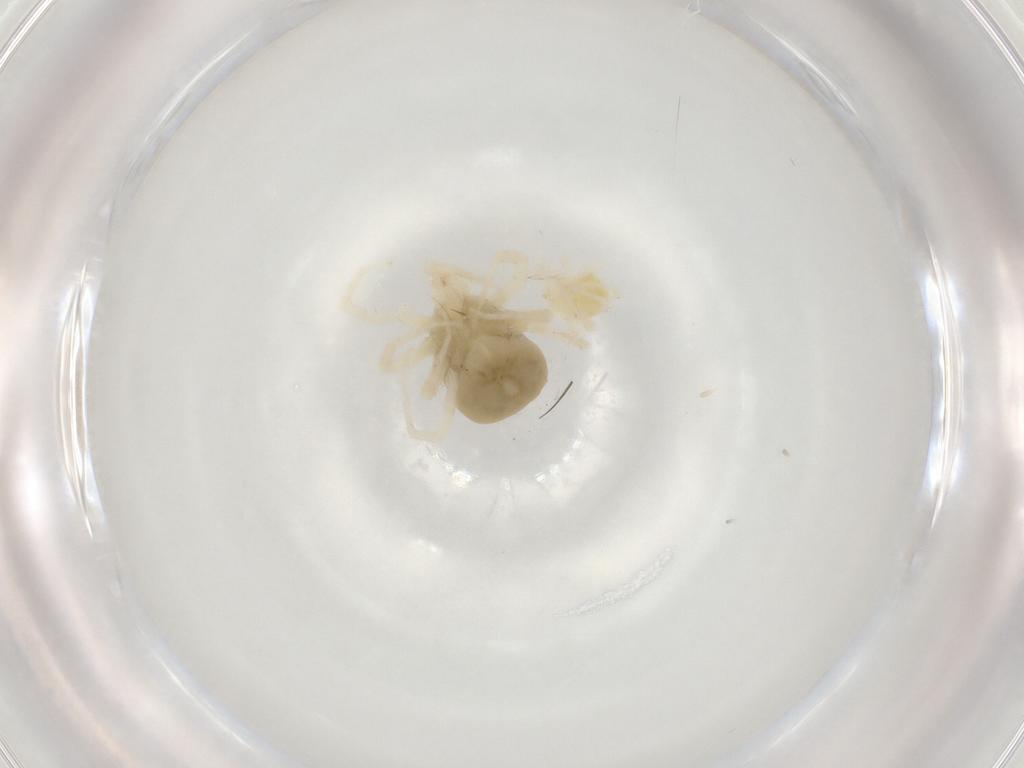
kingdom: Animalia
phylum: Arthropoda
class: Arachnida
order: Trombidiformes
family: Anystidae
